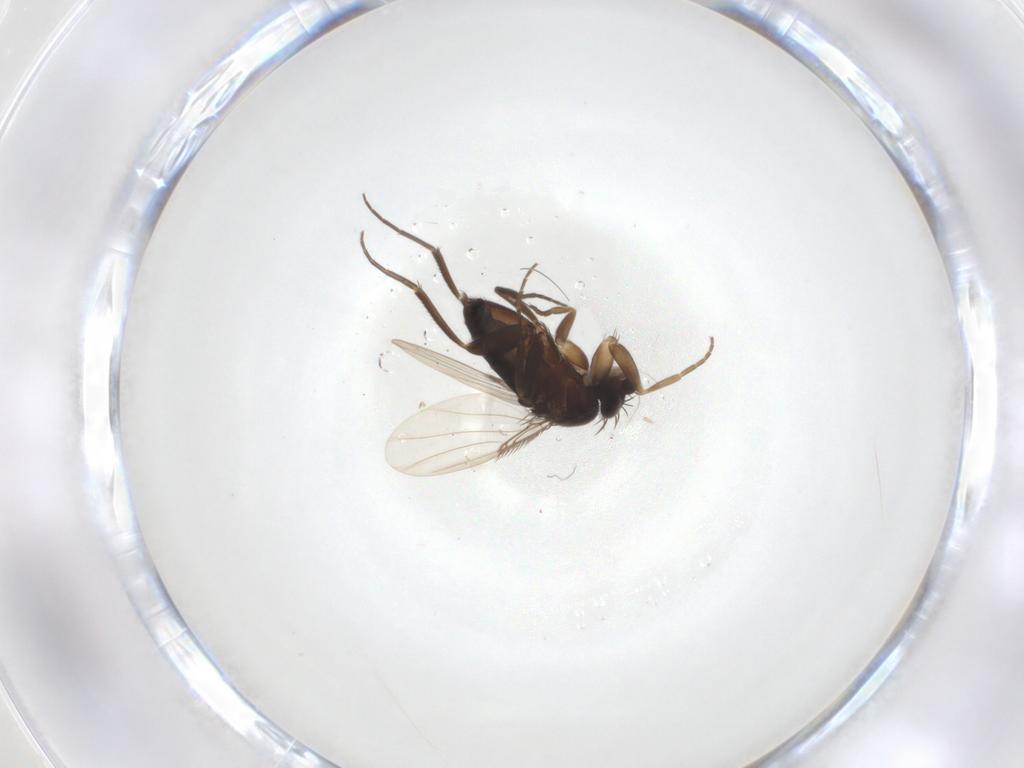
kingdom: Animalia
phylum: Arthropoda
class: Insecta
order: Diptera
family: Phoridae
